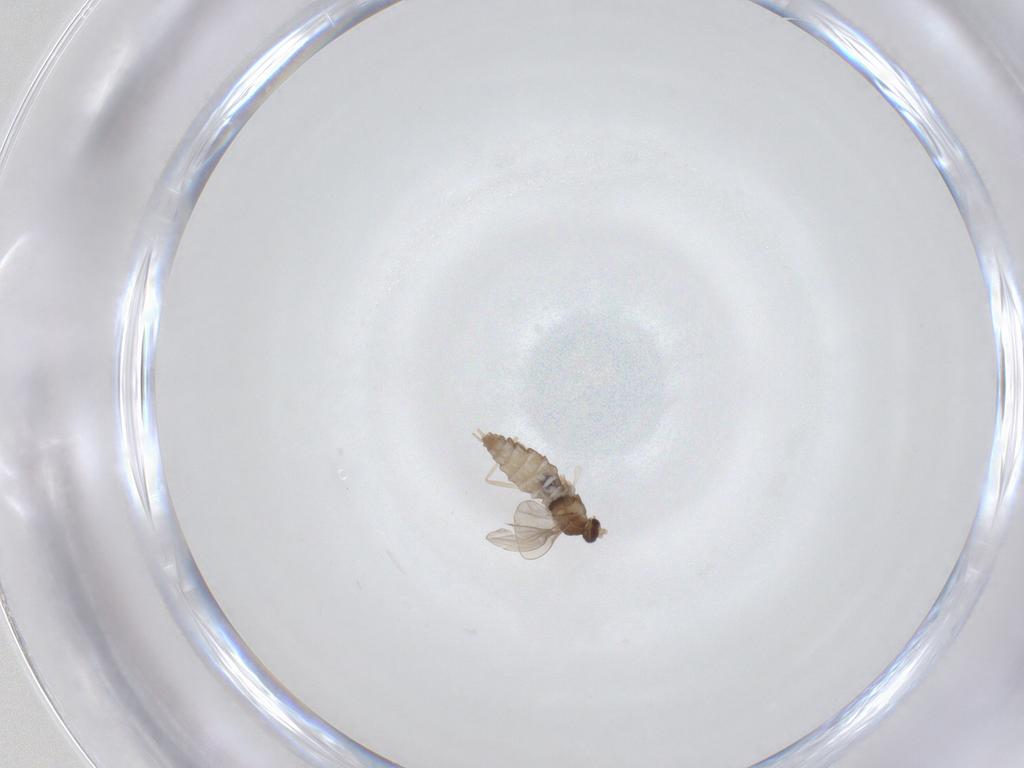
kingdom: Animalia
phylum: Arthropoda
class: Insecta
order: Diptera
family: Cecidomyiidae
